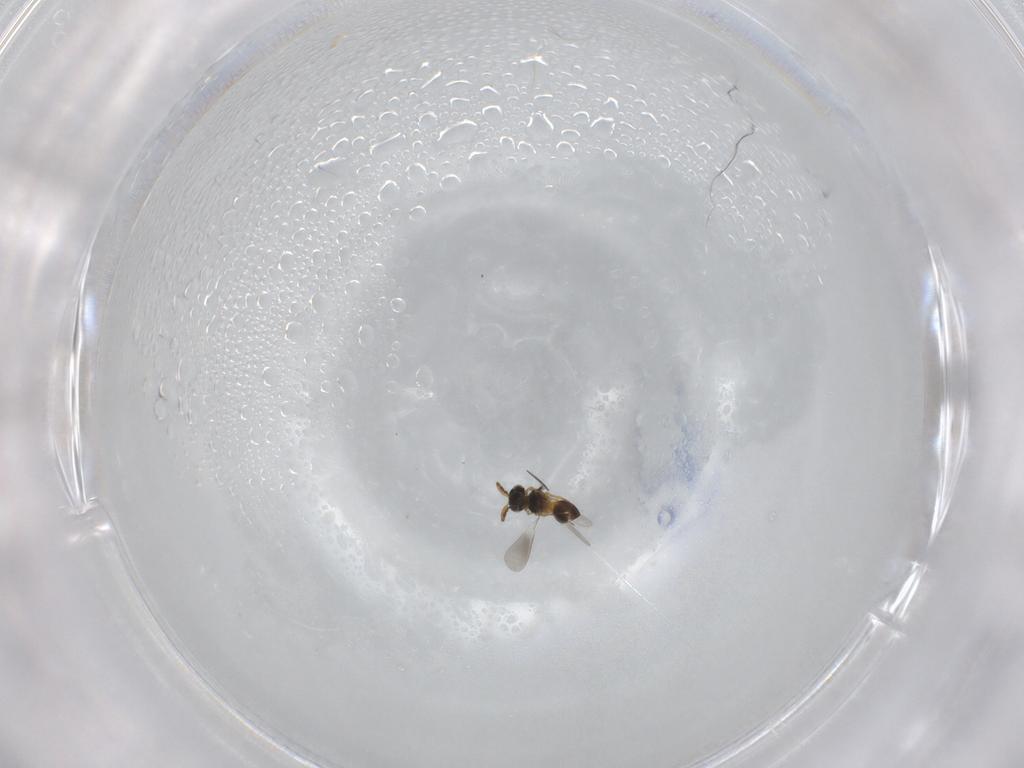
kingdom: Animalia
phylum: Arthropoda
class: Insecta
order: Hymenoptera
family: Platygastridae
